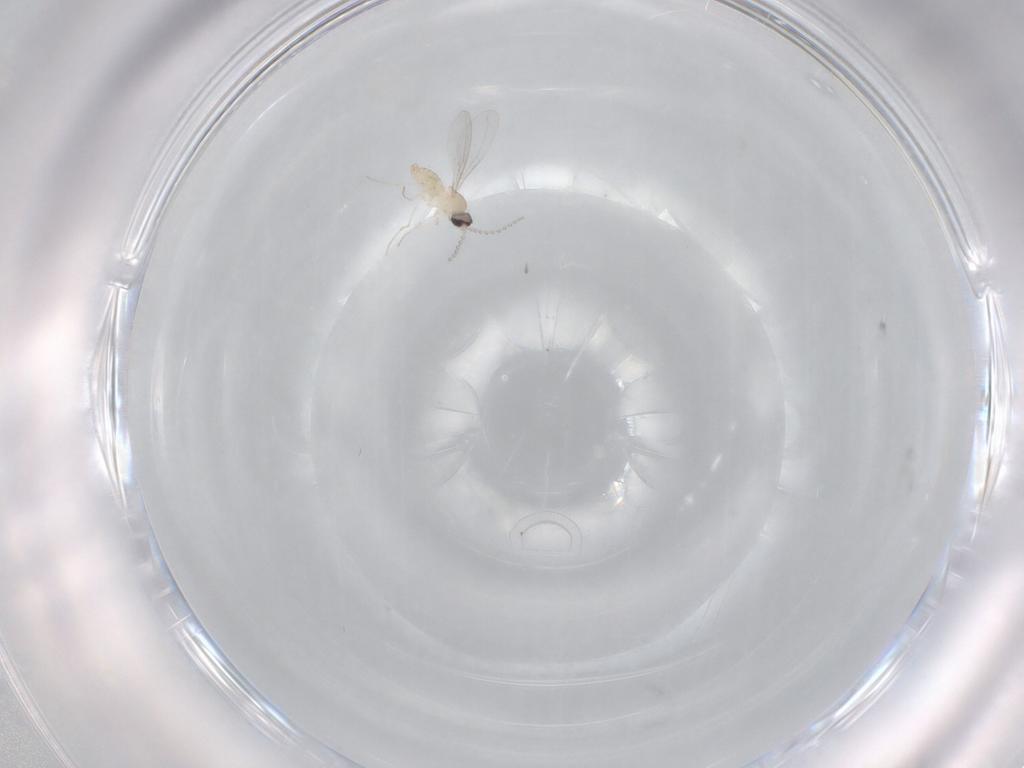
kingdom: Animalia
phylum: Arthropoda
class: Insecta
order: Diptera
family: Cecidomyiidae
